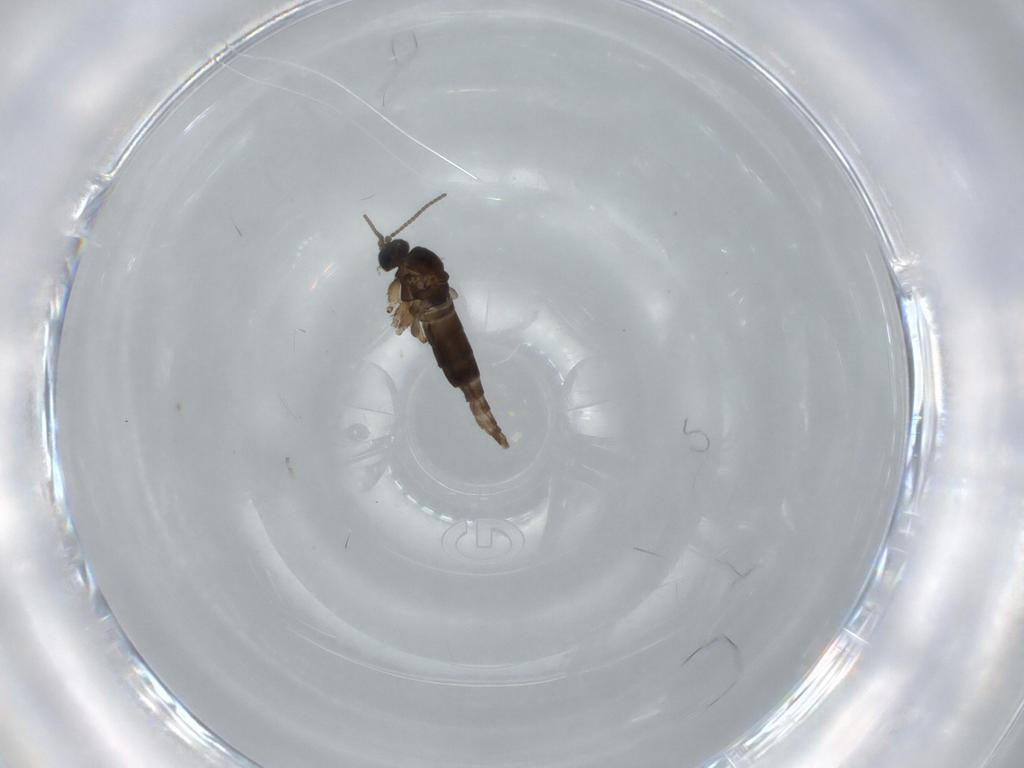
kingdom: Animalia
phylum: Arthropoda
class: Insecta
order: Diptera
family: Sciaridae
